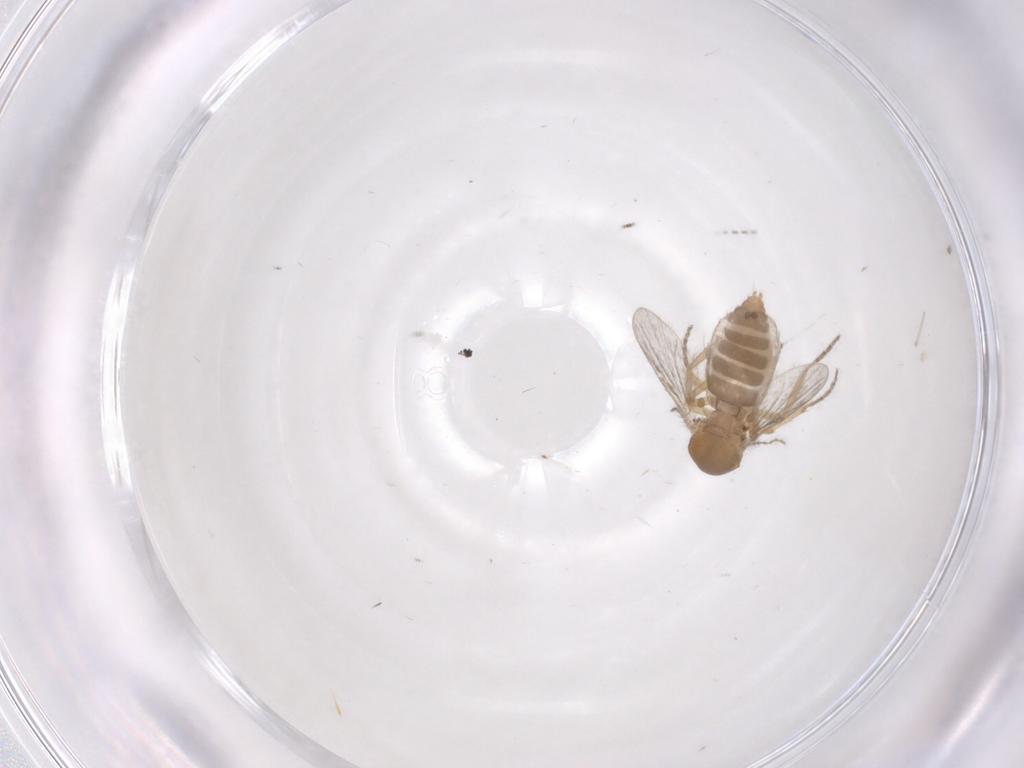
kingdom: Animalia
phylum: Arthropoda
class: Insecta
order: Diptera
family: Ceratopogonidae
